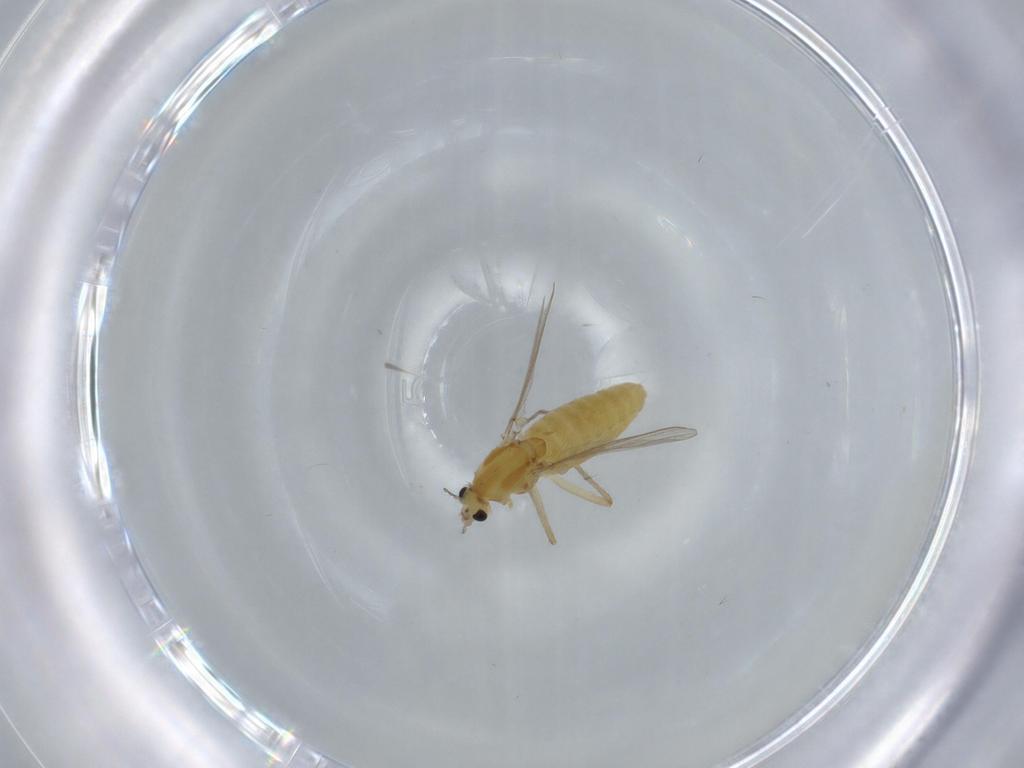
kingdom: Animalia
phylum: Arthropoda
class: Insecta
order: Diptera
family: Chironomidae
